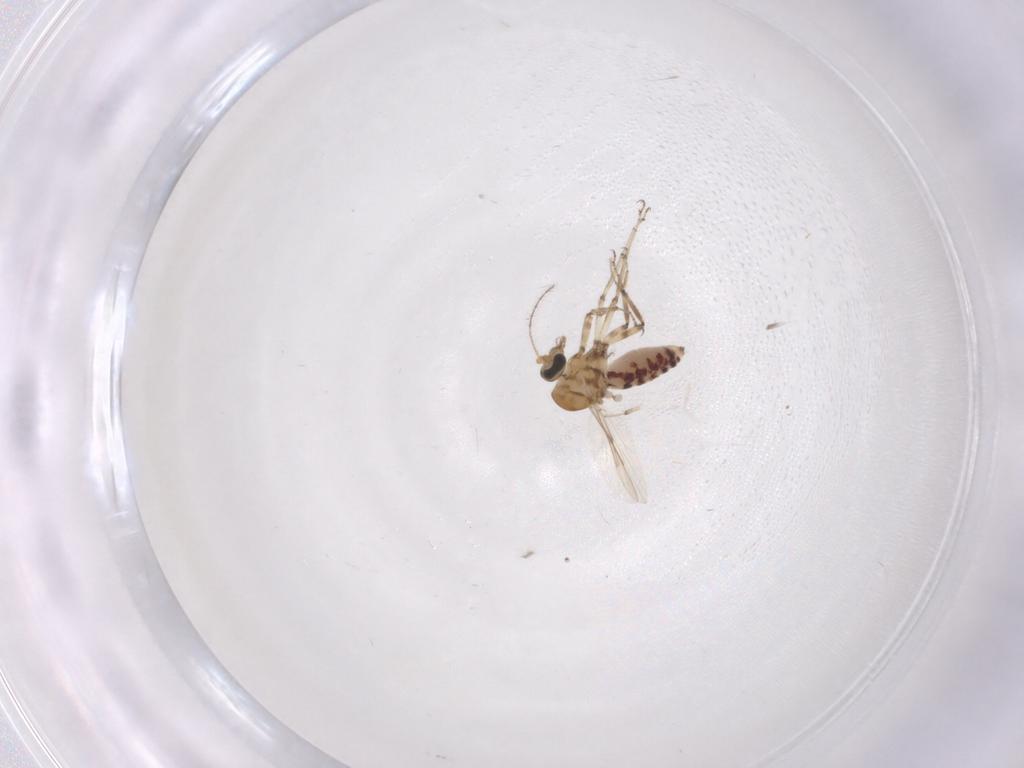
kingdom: Animalia
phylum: Arthropoda
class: Insecta
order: Diptera
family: Ceratopogonidae
